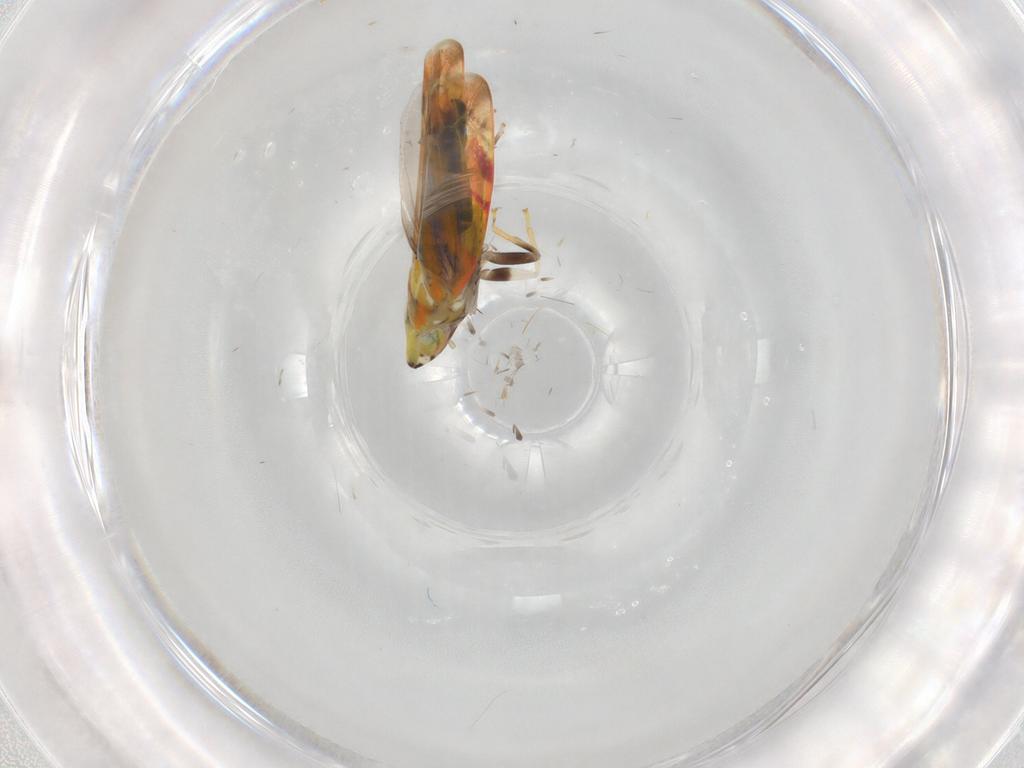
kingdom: Animalia
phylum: Arthropoda
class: Insecta
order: Hemiptera
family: Cicadellidae
